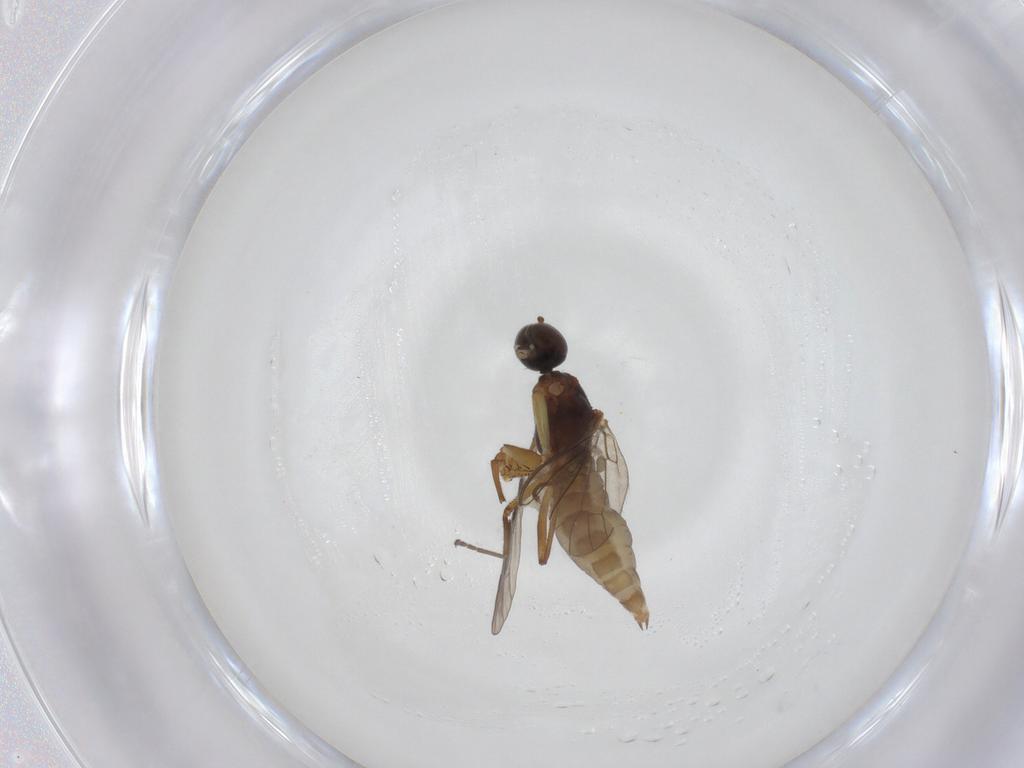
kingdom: Animalia
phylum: Arthropoda
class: Insecta
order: Diptera
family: Empididae
